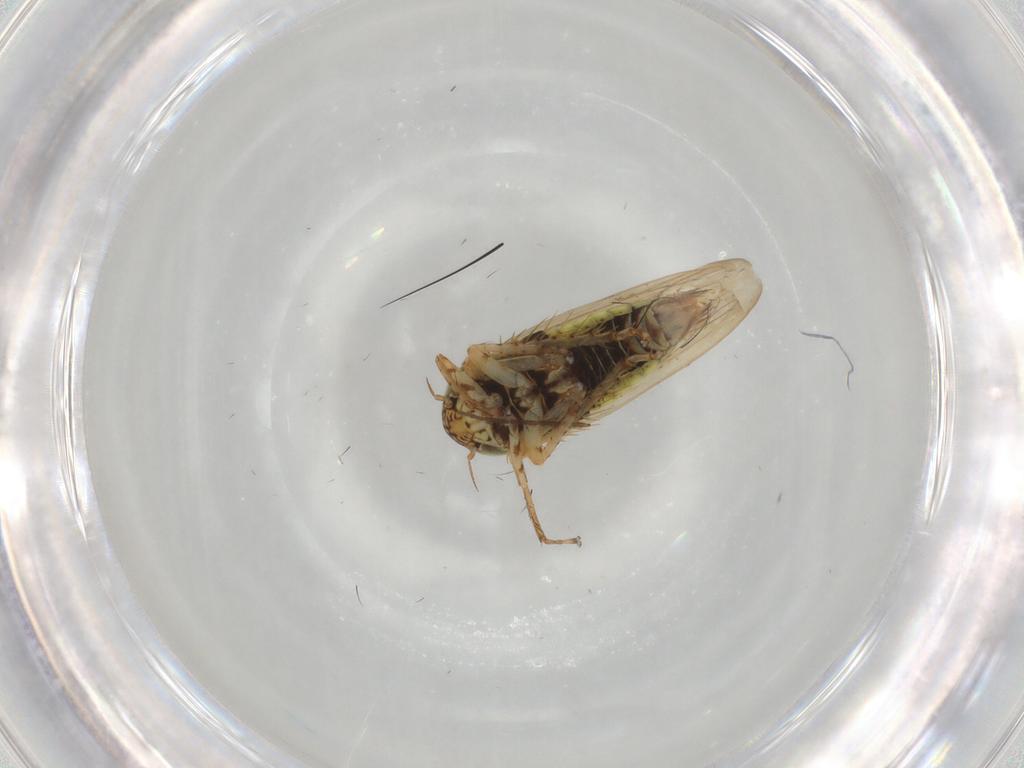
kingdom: Animalia
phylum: Arthropoda
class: Insecta
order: Hemiptera
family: Cicadellidae
